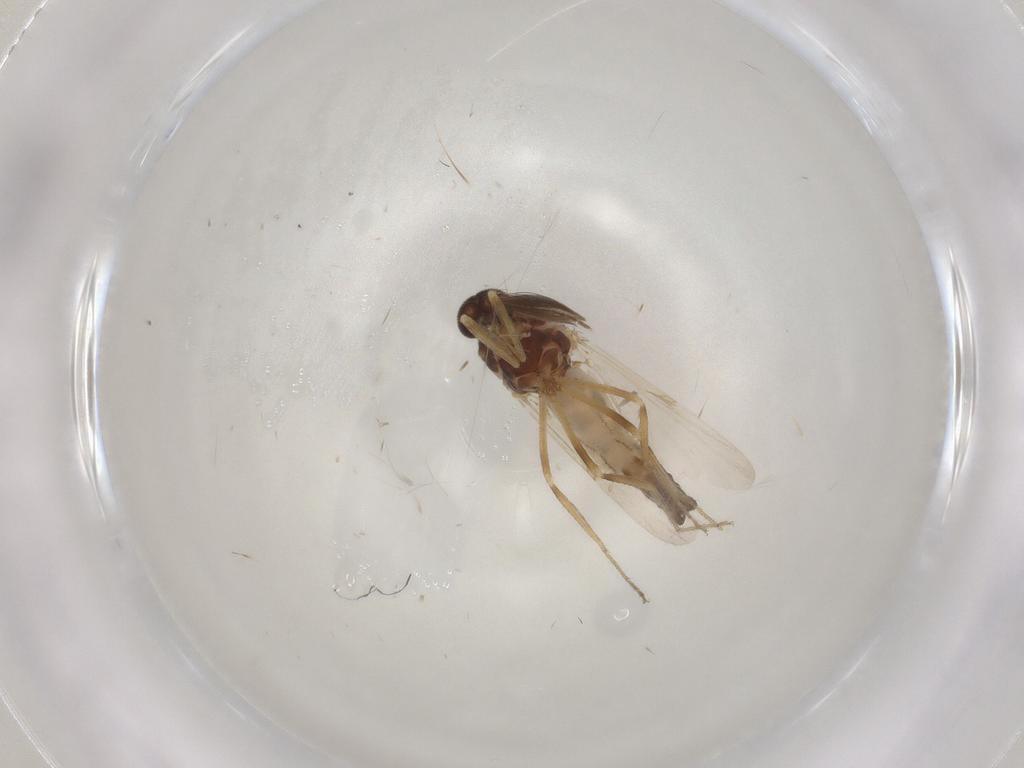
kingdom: Animalia
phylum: Arthropoda
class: Insecta
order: Diptera
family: Ceratopogonidae
